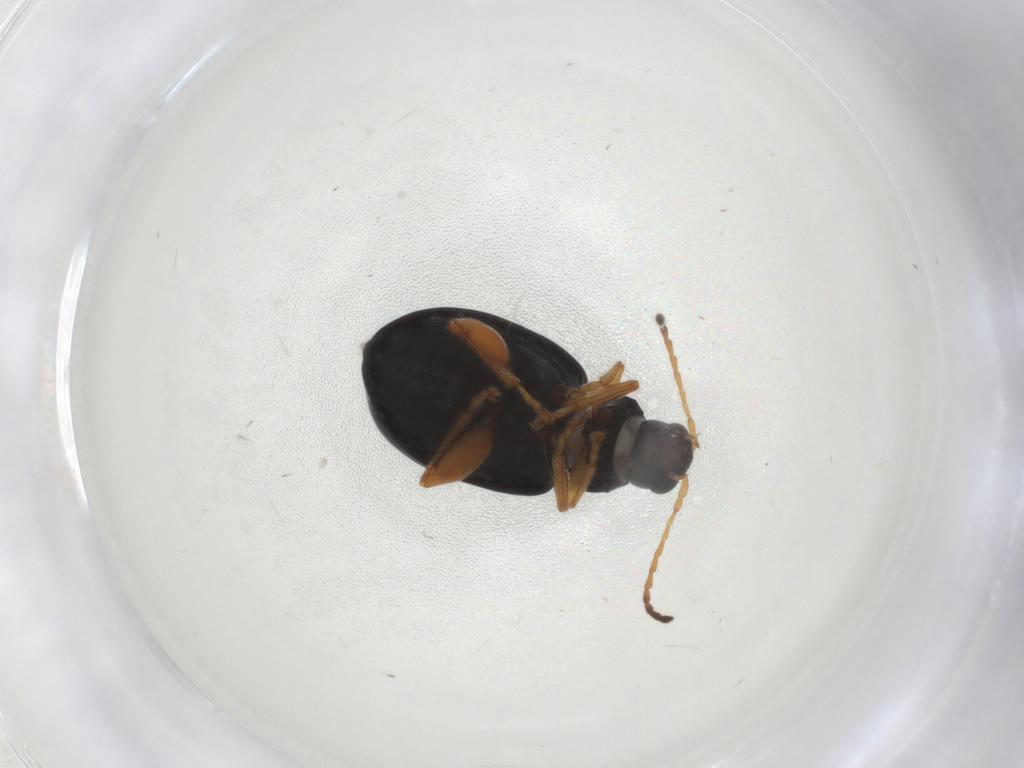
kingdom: Animalia
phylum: Arthropoda
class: Insecta
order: Coleoptera
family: Chrysomelidae
